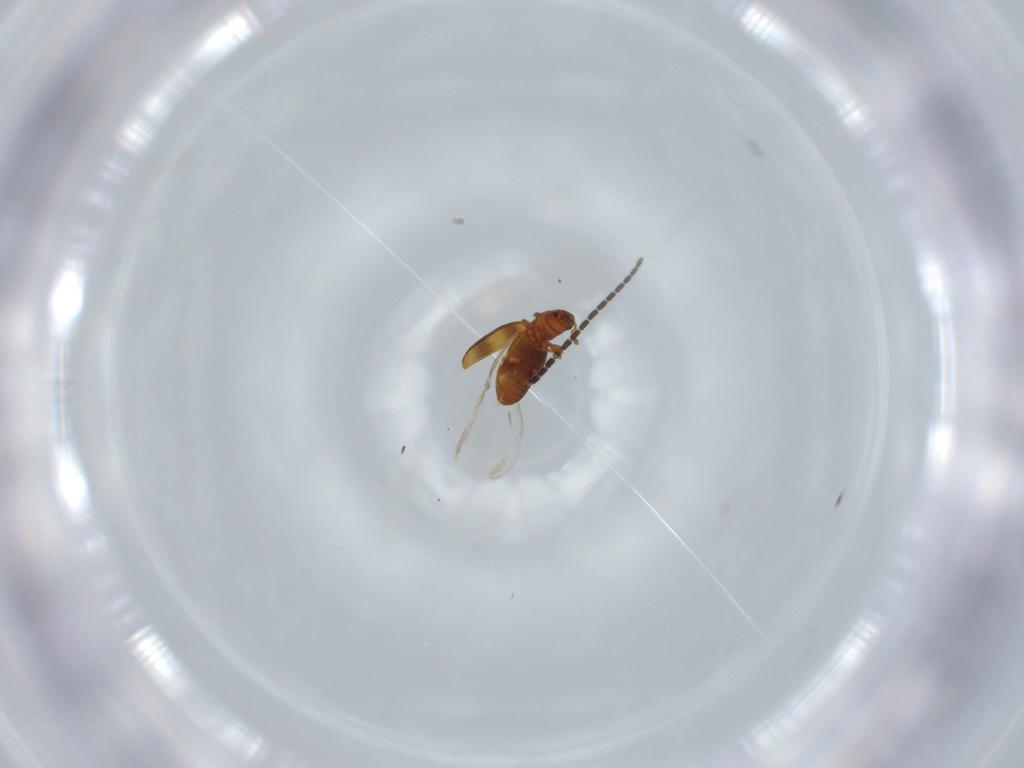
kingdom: Animalia
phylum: Arthropoda
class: Insecta
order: Coleoptera
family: Monotomidae
